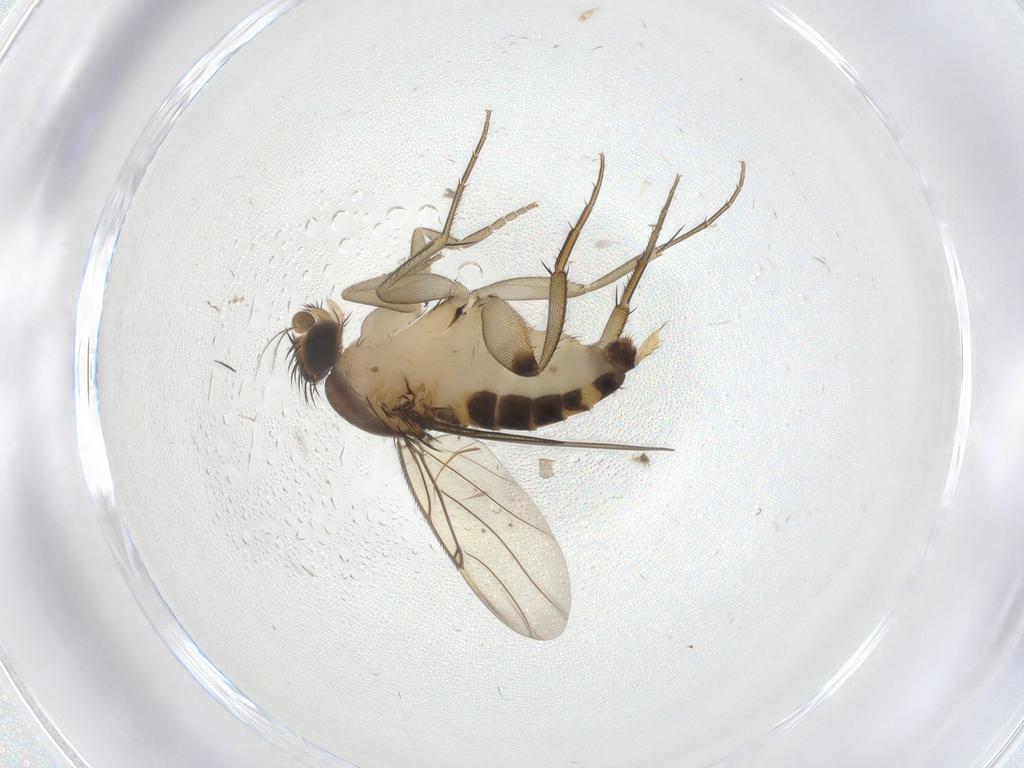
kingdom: Animalia
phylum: Arthropoda
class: Insecta
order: Diptera
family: Phoridae
